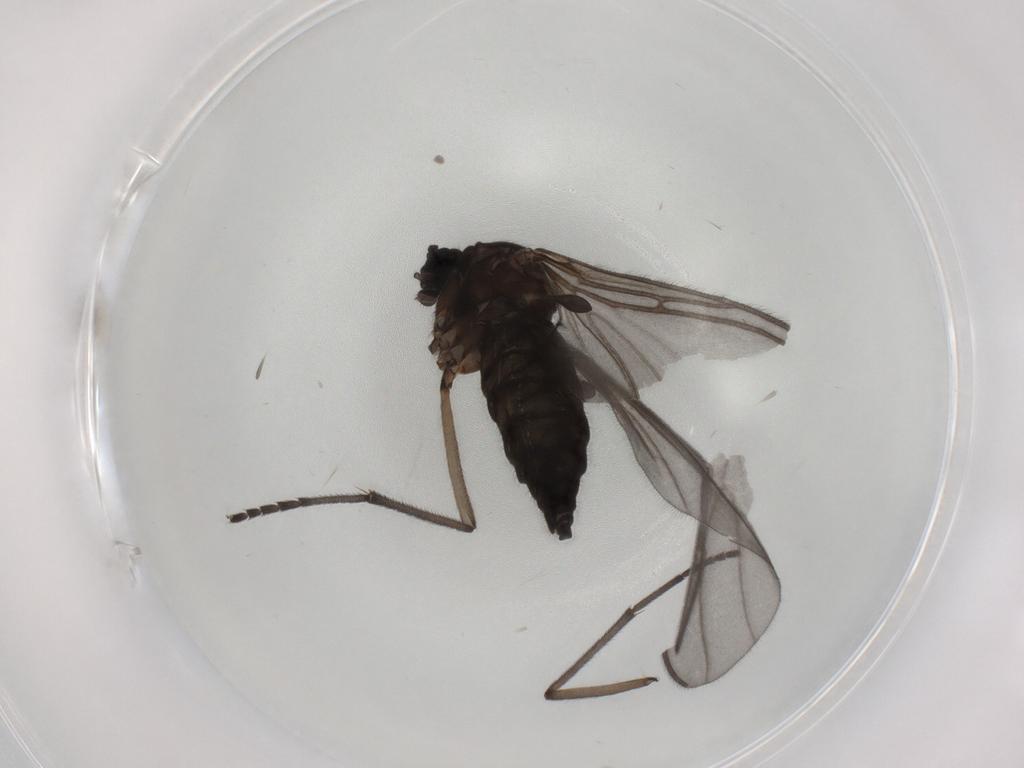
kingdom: Animalia
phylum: Arthropoda
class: Insecta
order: Diptera
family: Sciaridae
